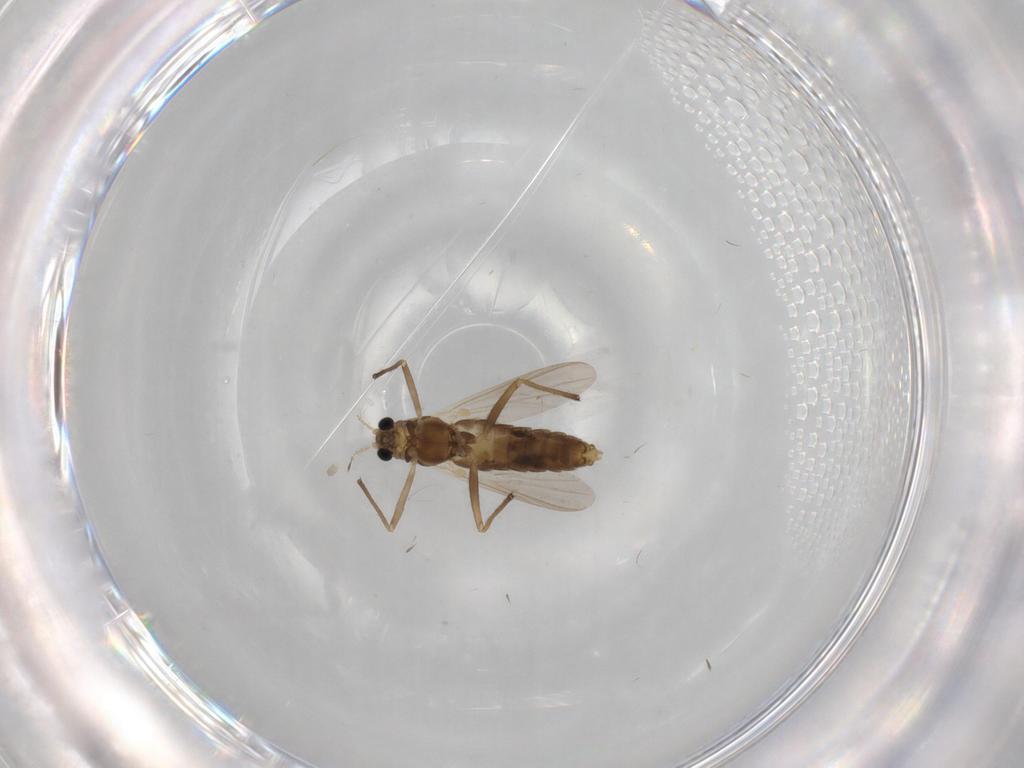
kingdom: Animalia
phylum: Arthropoda
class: Insecta
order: Diptera
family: Chironomidae
